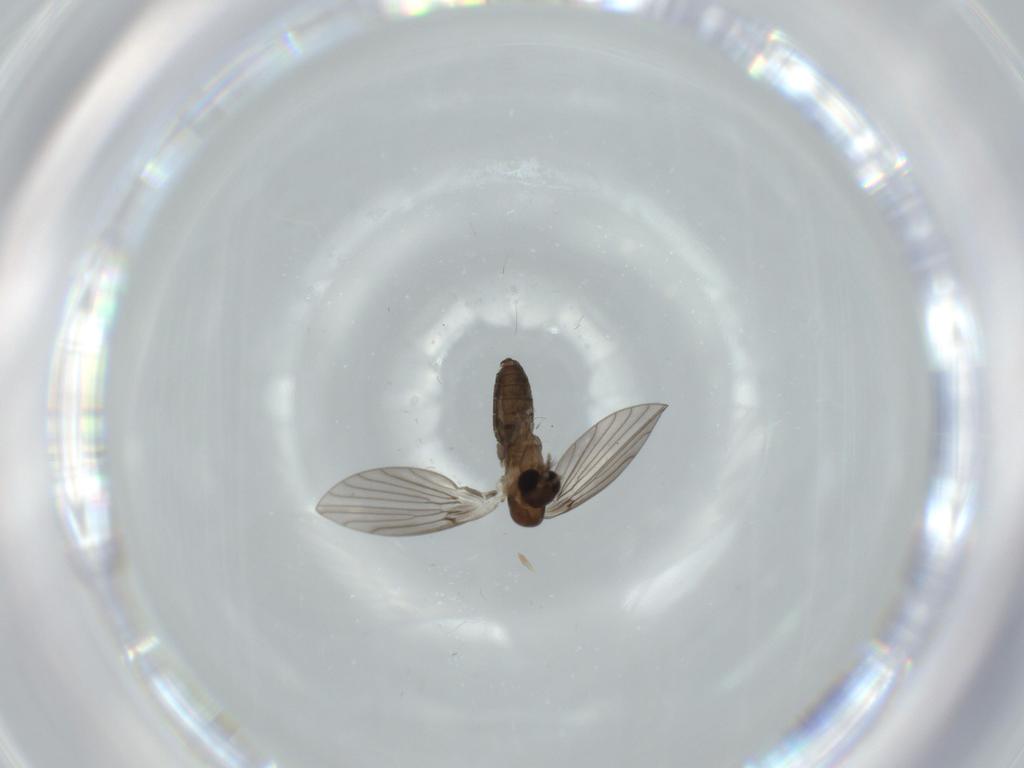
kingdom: Animalia
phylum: Arthropoda
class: Insecta
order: Diptera
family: Psychodidae
